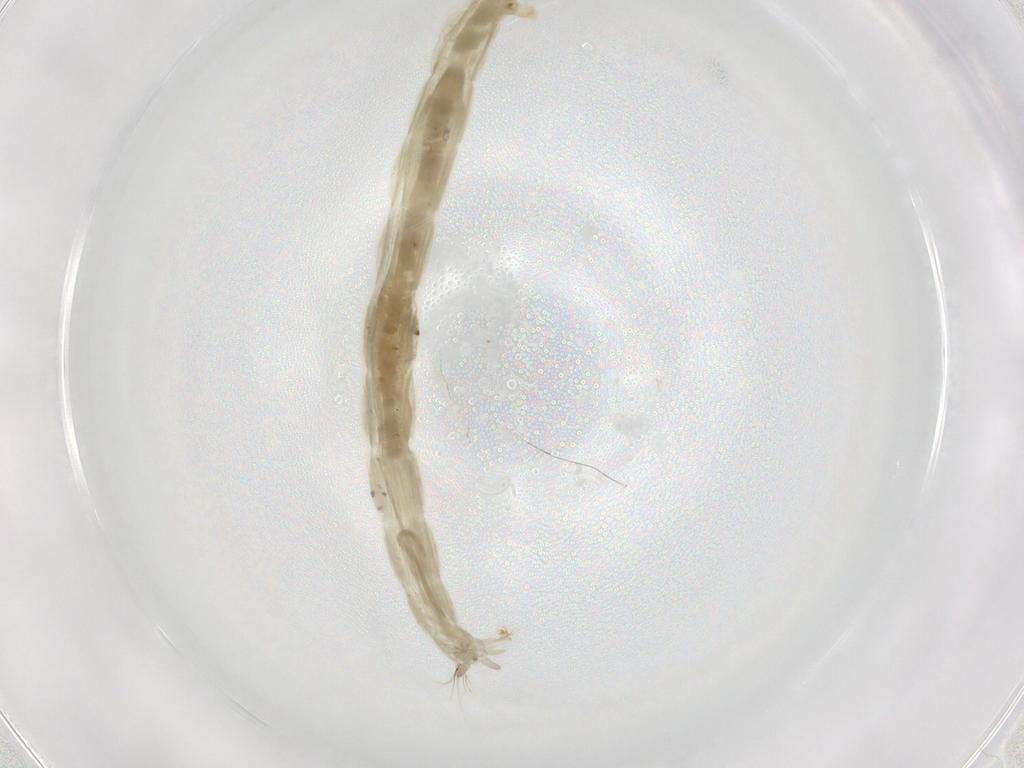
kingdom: Animalia
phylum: Arthropoda
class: Insecta
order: Diptera
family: Chironomidae
